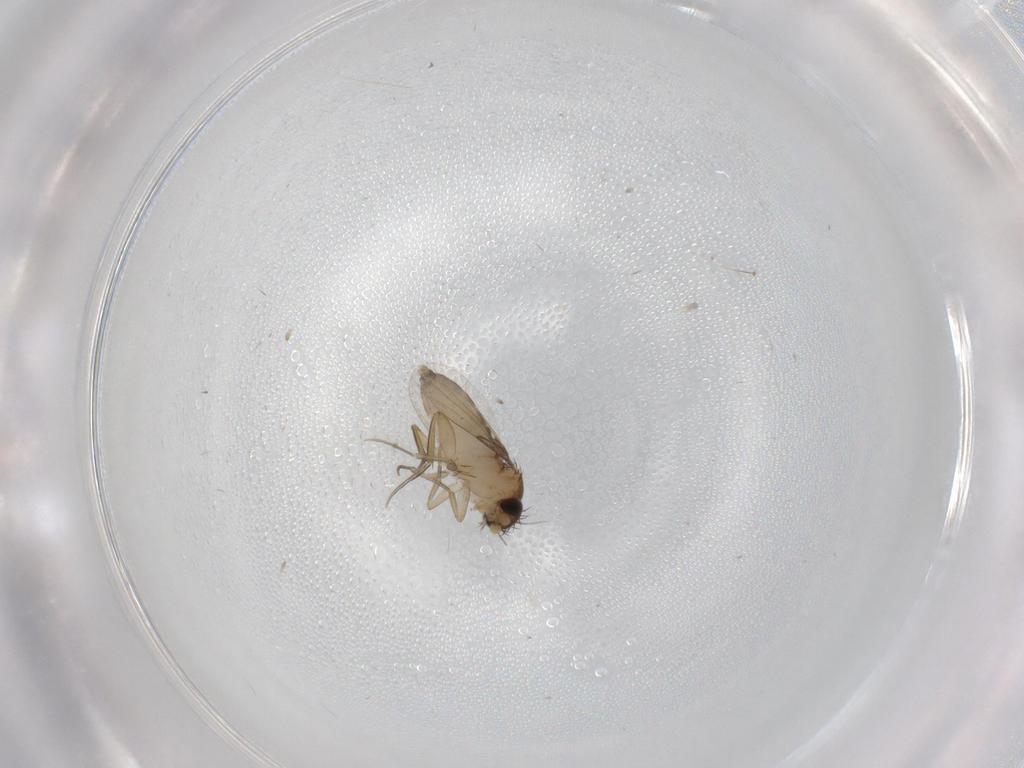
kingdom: Animalia
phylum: Arthropoda
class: Insecta
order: Diptera
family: Phoridae
